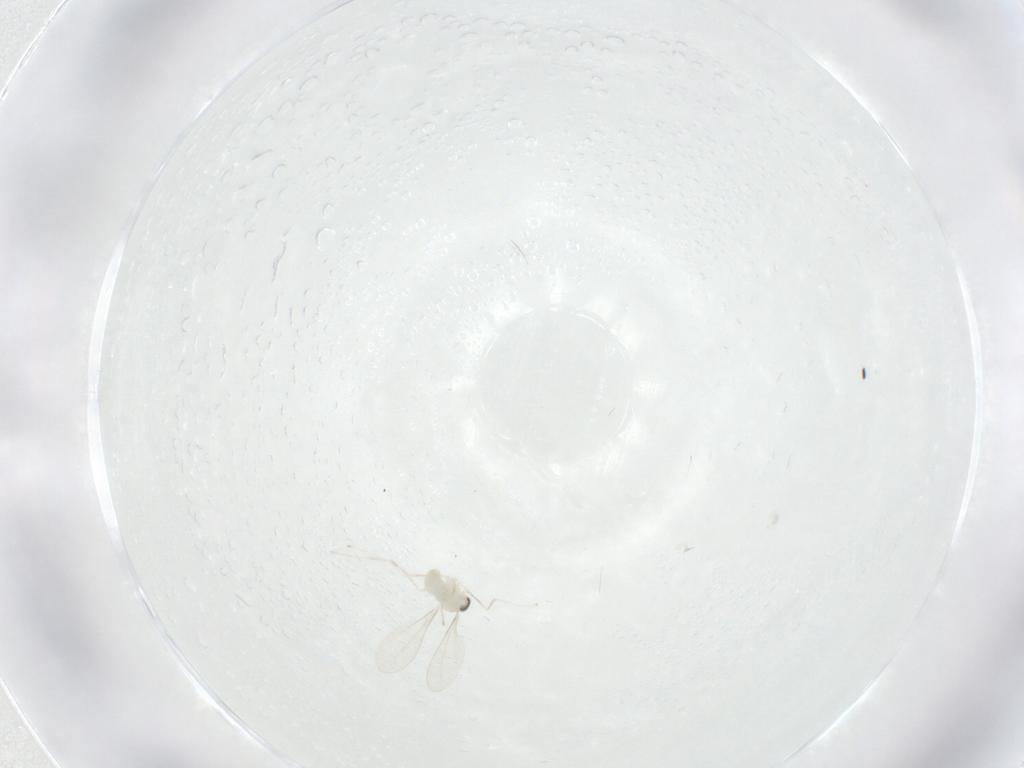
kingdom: Animalia
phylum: Arthropoda
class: Insecta
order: Diptera
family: Cecidomyiidae
